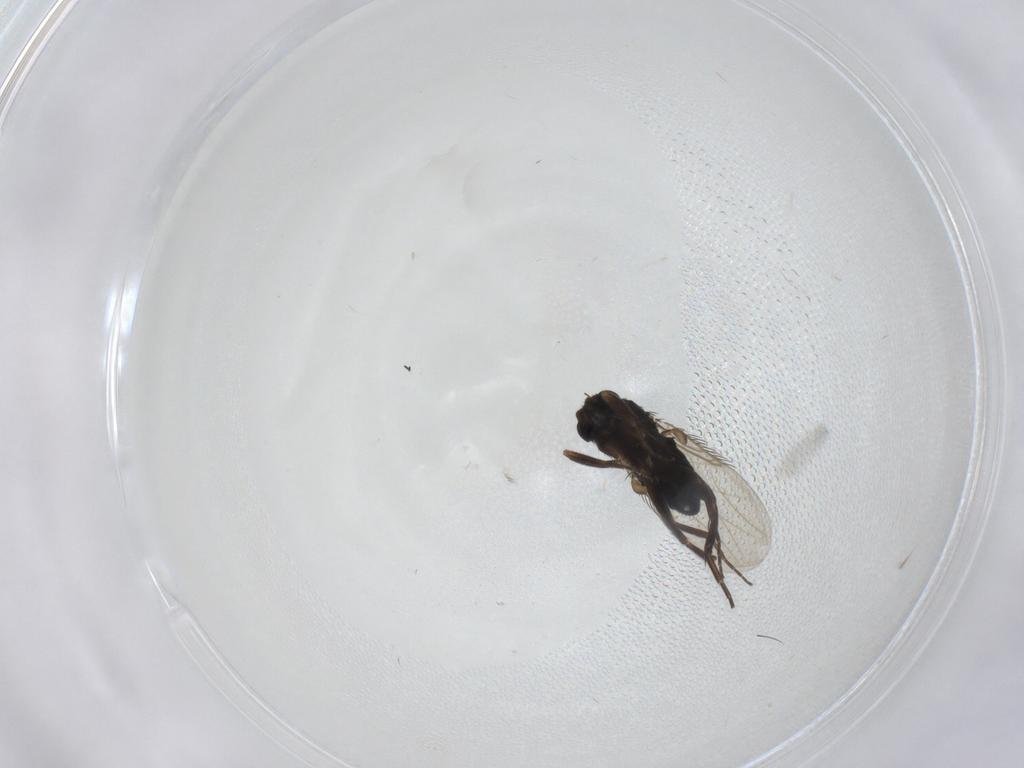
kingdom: Animalia
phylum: Arthropoda
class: Insecta
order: Diptera
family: Phoridae
